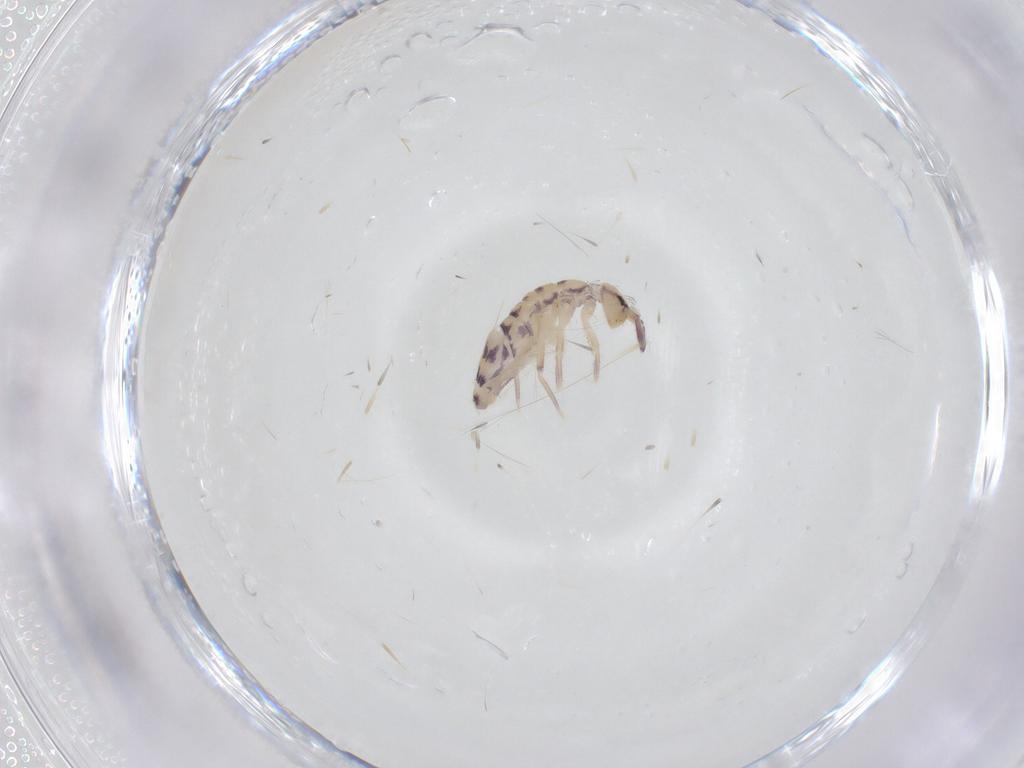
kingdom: Animalia
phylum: Arthropoda
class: Collembola
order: Entomobryomorpha
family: Entomobryidae
